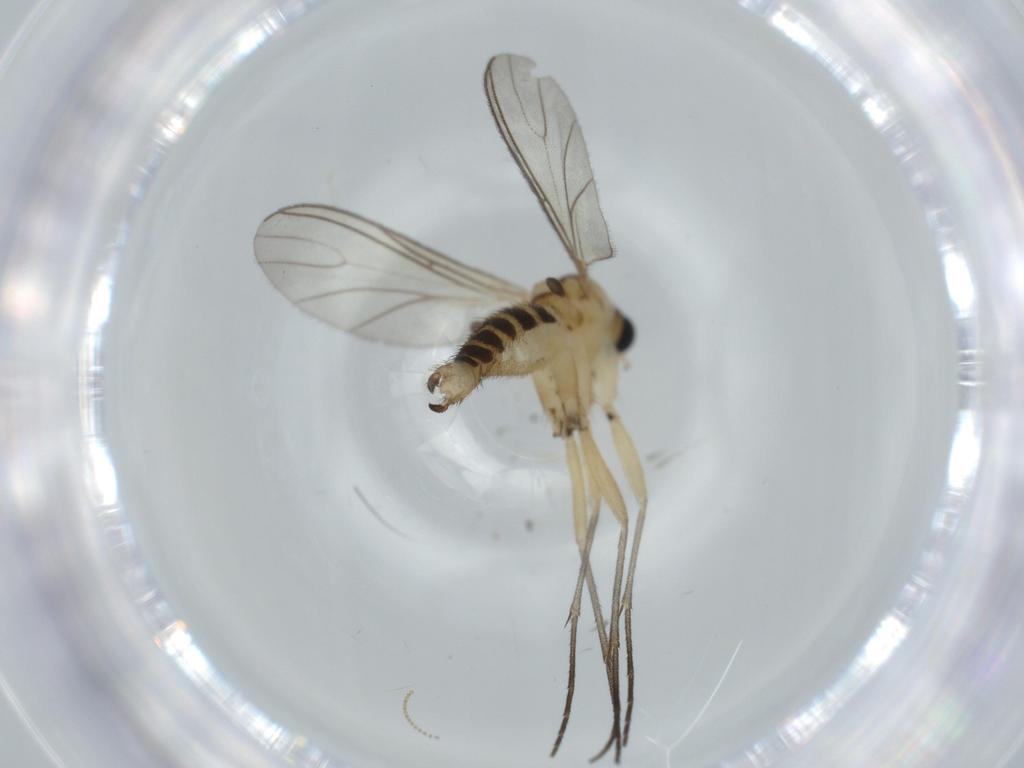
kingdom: Animalia
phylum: Arthropoda
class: Insecta
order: Diptera
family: Sciaridae
